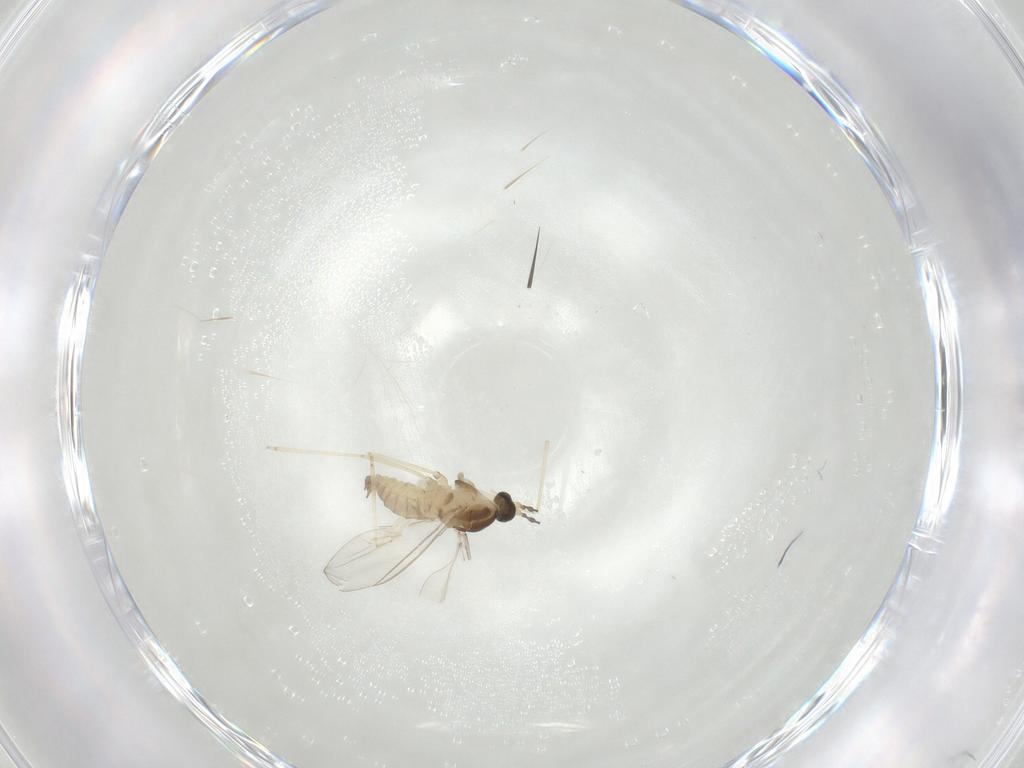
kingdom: Animalia
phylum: Arthropoda
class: Insecta
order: Diptera
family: Cecidomyiidae
